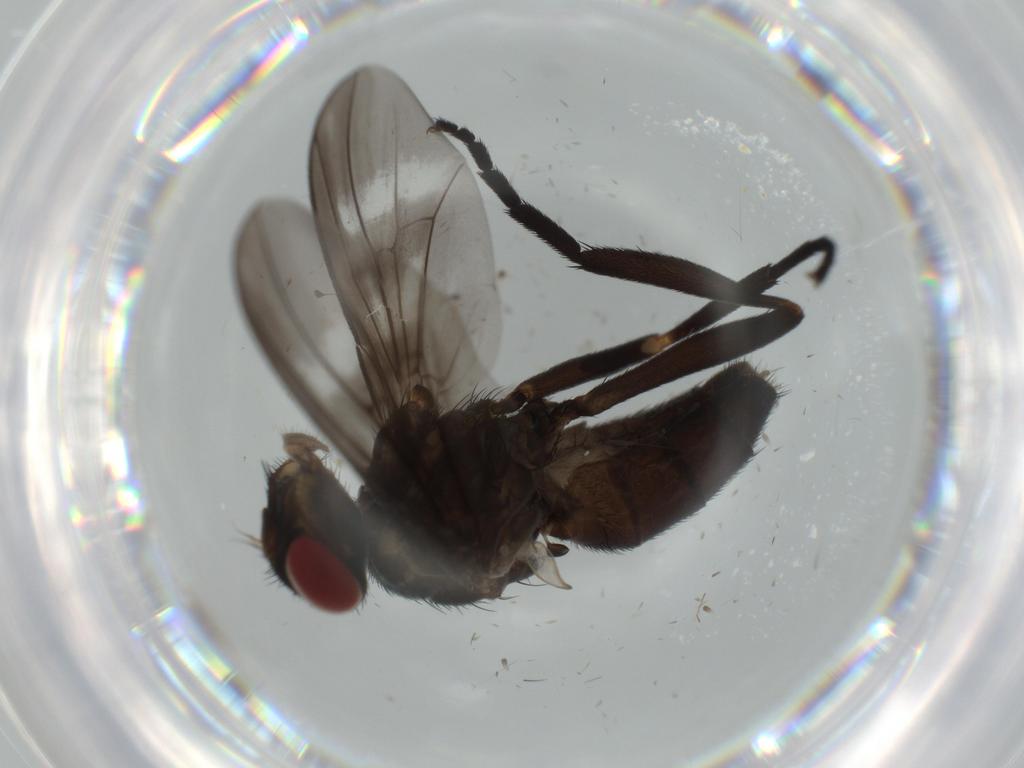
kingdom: Animalia
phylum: Arthropoda
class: Insecta
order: Diptera
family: Calliphoridae
